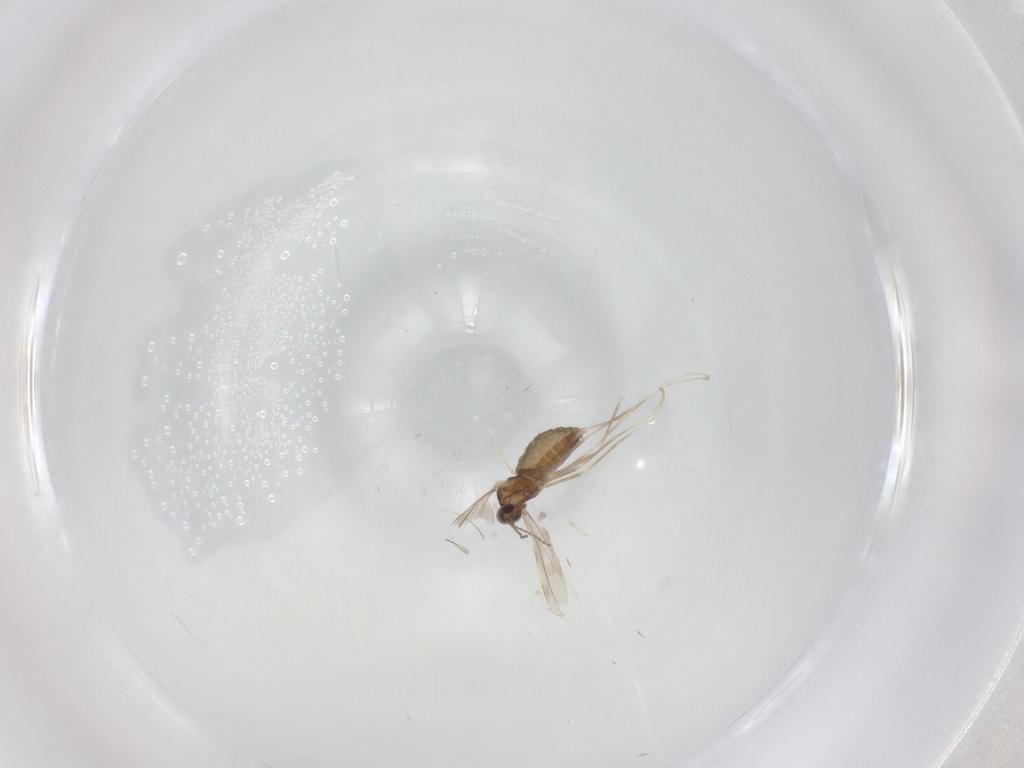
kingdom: Animalia
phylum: Arthropoda
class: Insecta
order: Diptera
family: Cecidomyiidae
